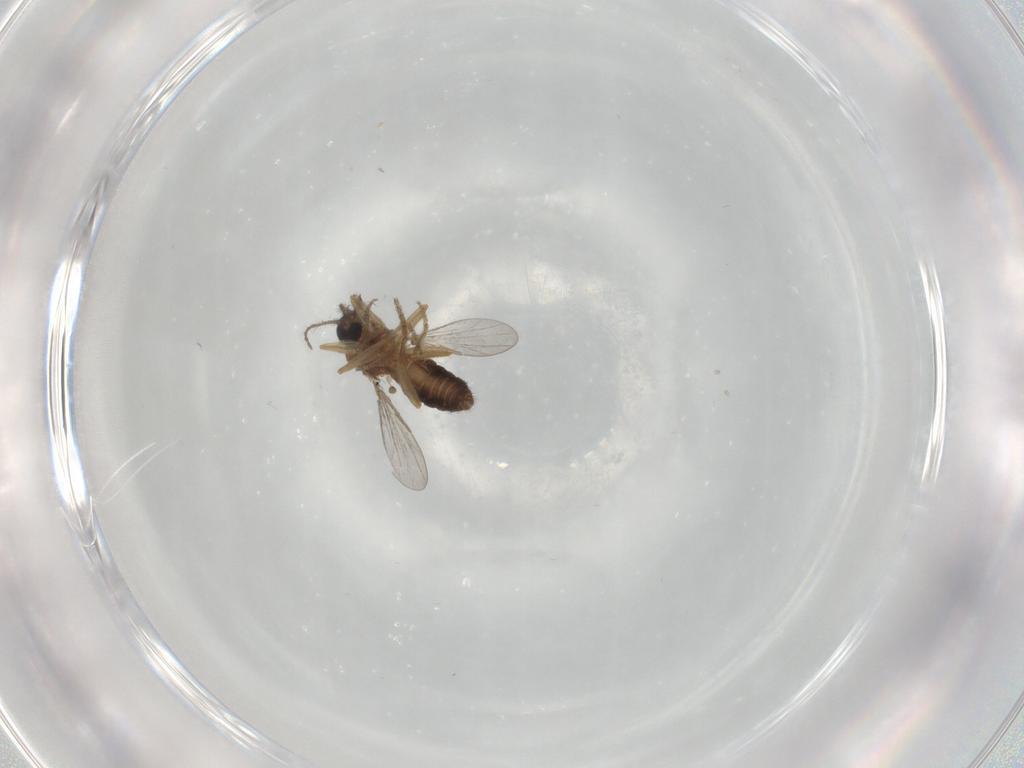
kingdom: Animalia
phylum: Arthropoda
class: Insecta
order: Diptera
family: Ceratopogonidae
